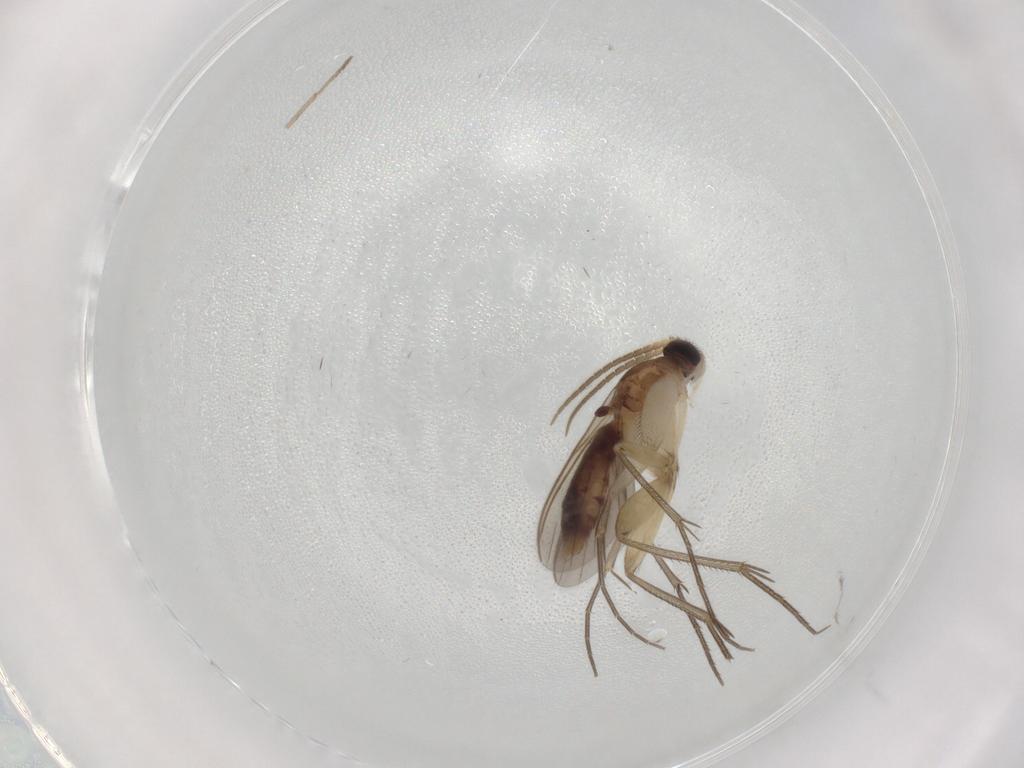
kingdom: Animalia
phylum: Arthropoda
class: Insecta
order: Diptera
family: Mycetophilidae
